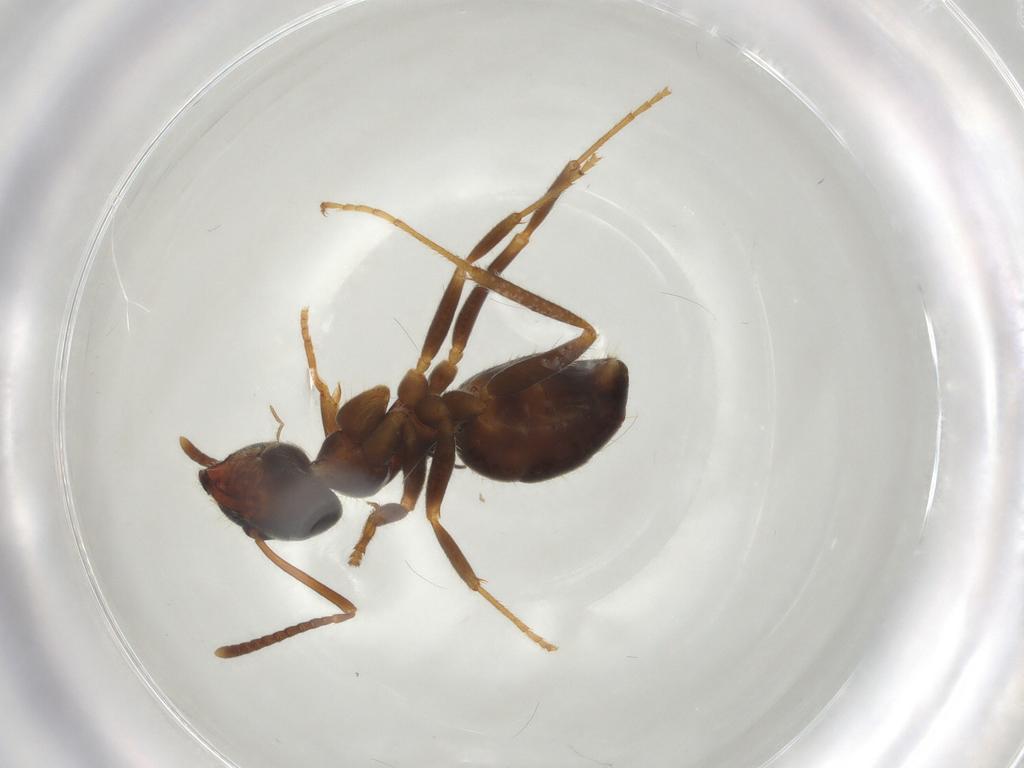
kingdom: Animalia
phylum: Arthropoda
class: Insecta
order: Hymenoptera
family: Formicidae
